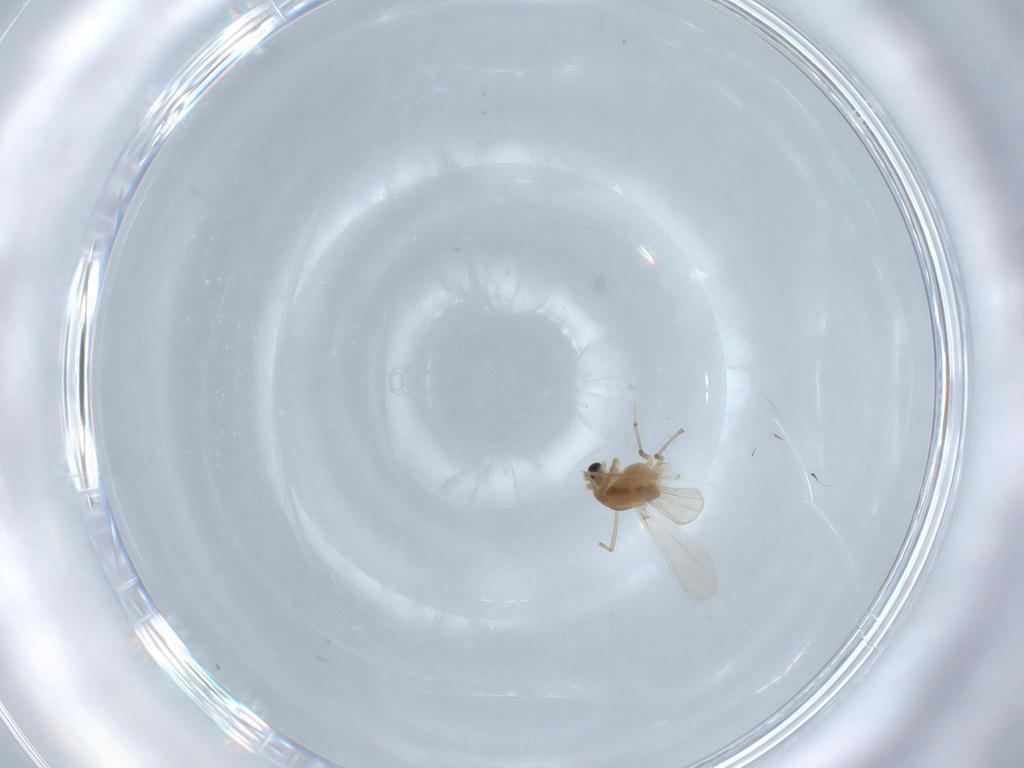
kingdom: Animalia
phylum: Arthropoda
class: Insecta
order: Diptera
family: Chironomidae
